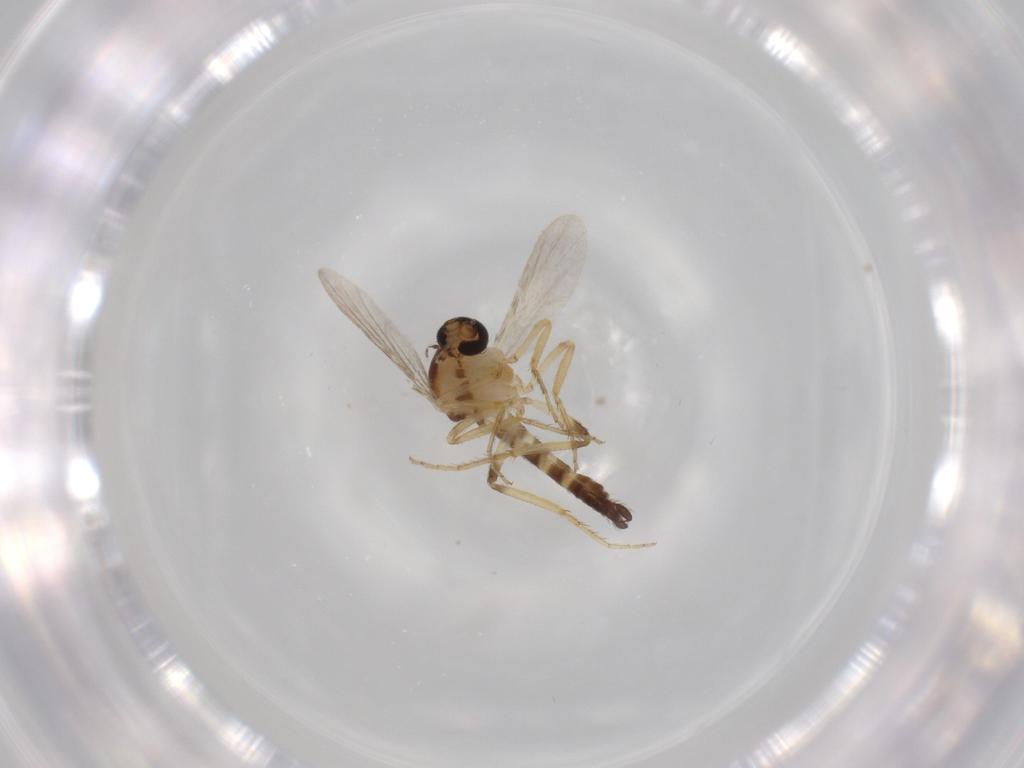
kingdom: Animalia
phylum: Arthropoda
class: Insecta
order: Diptera
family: Ceratopogonidae
